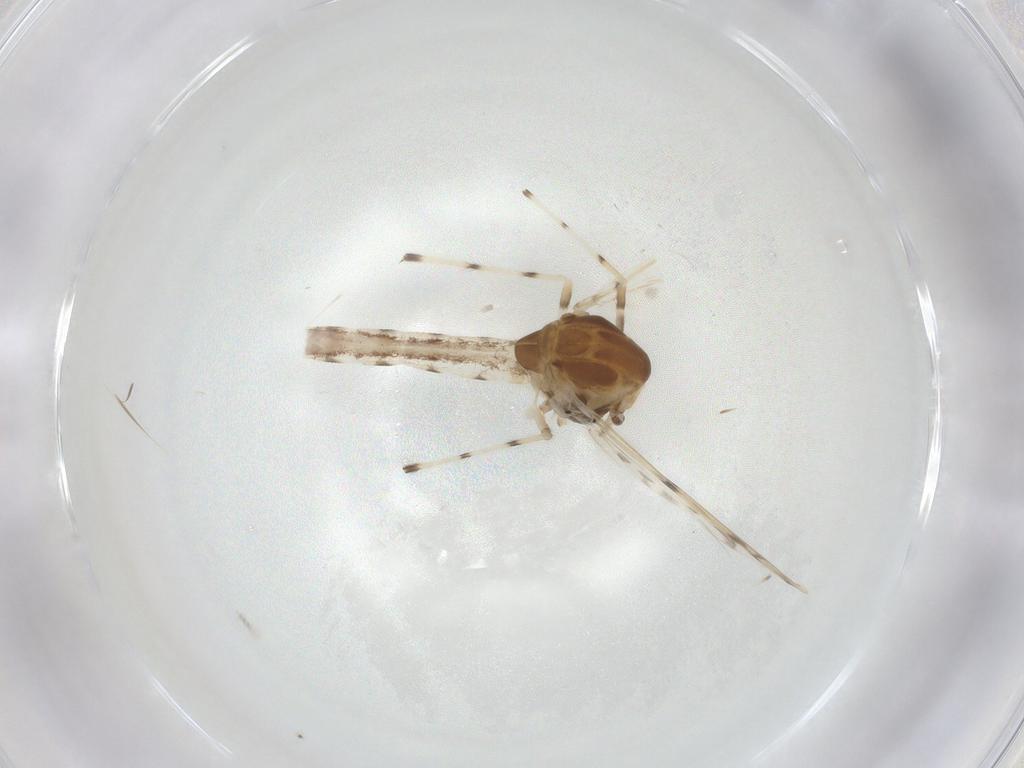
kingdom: Animalia
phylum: Arthropoda
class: Insecta
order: Diptera
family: Chironomidae
